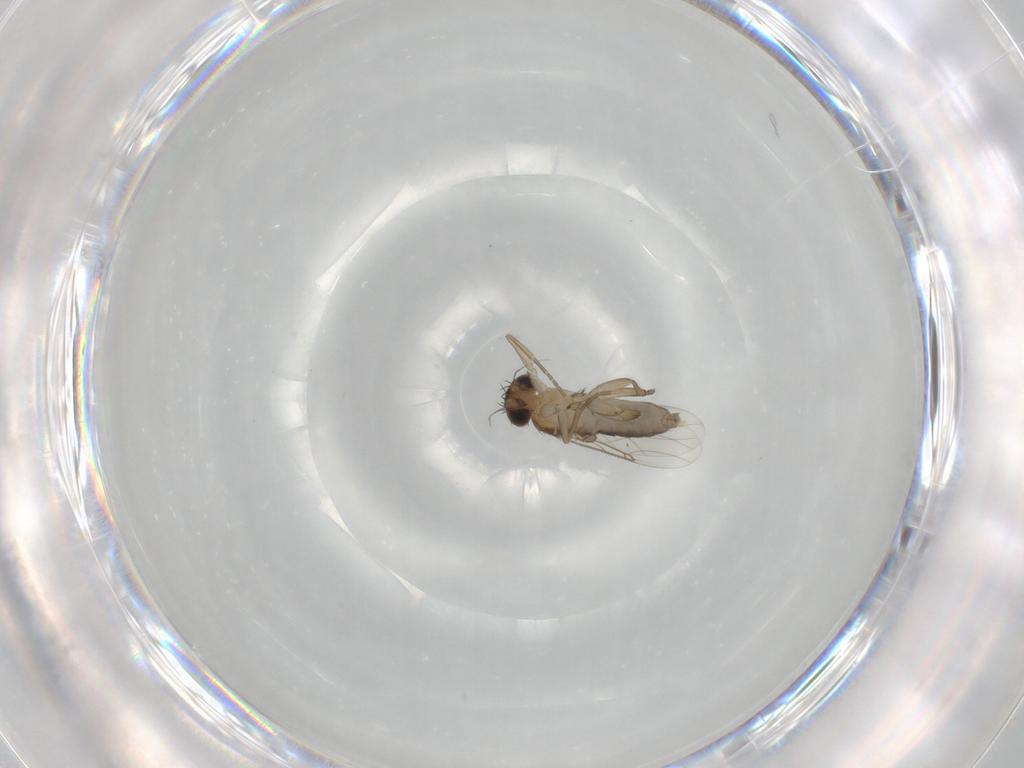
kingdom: Animalia
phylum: Arthropoda
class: Insecta
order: Diptera
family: Phoridae
